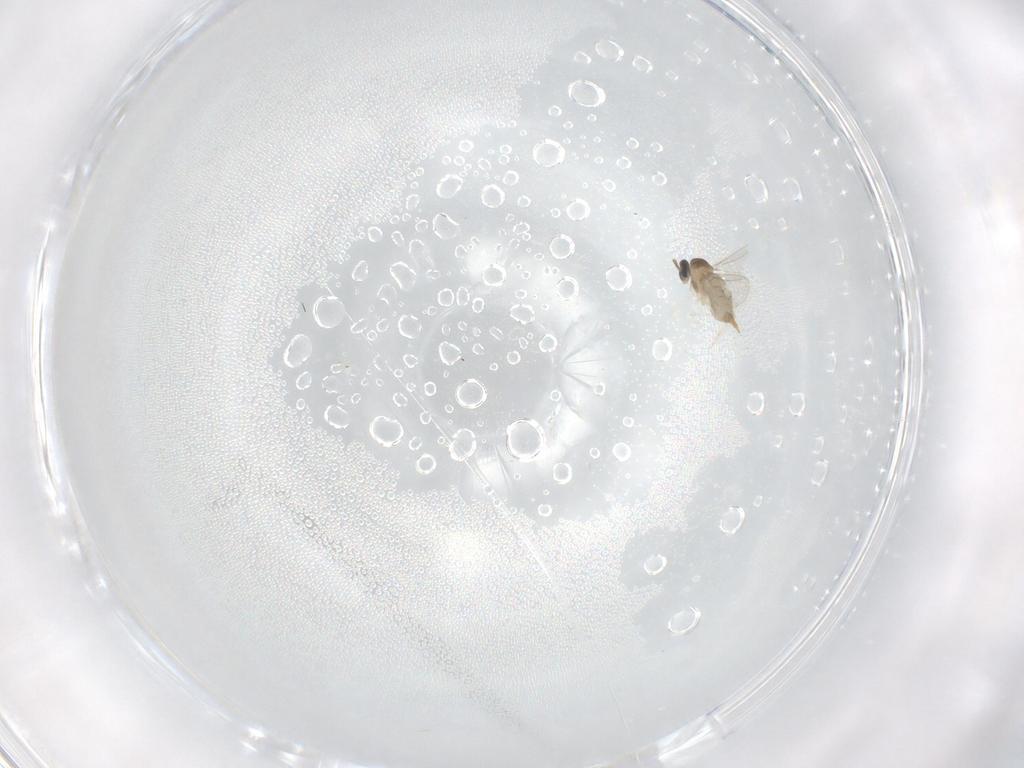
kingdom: Animalia
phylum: Arthropoda
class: Insecta
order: Diptera
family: Cecidomyiidae
